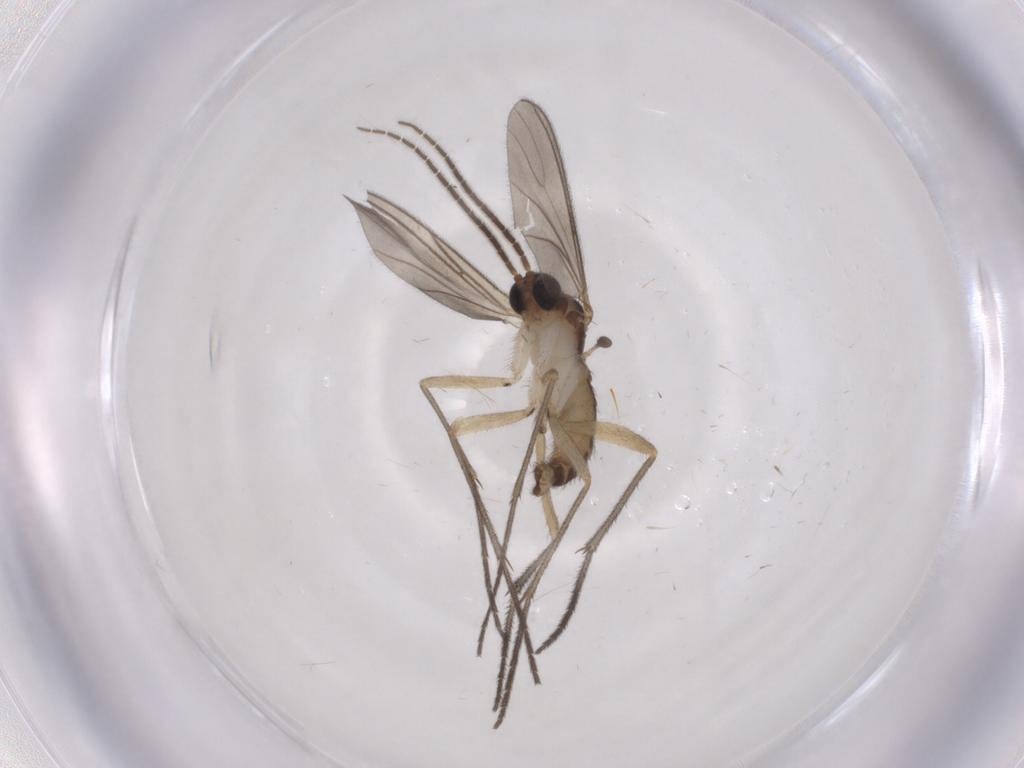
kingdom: Animalia
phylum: Arthropoda
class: Insecta
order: Diptera
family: Sciaridae
